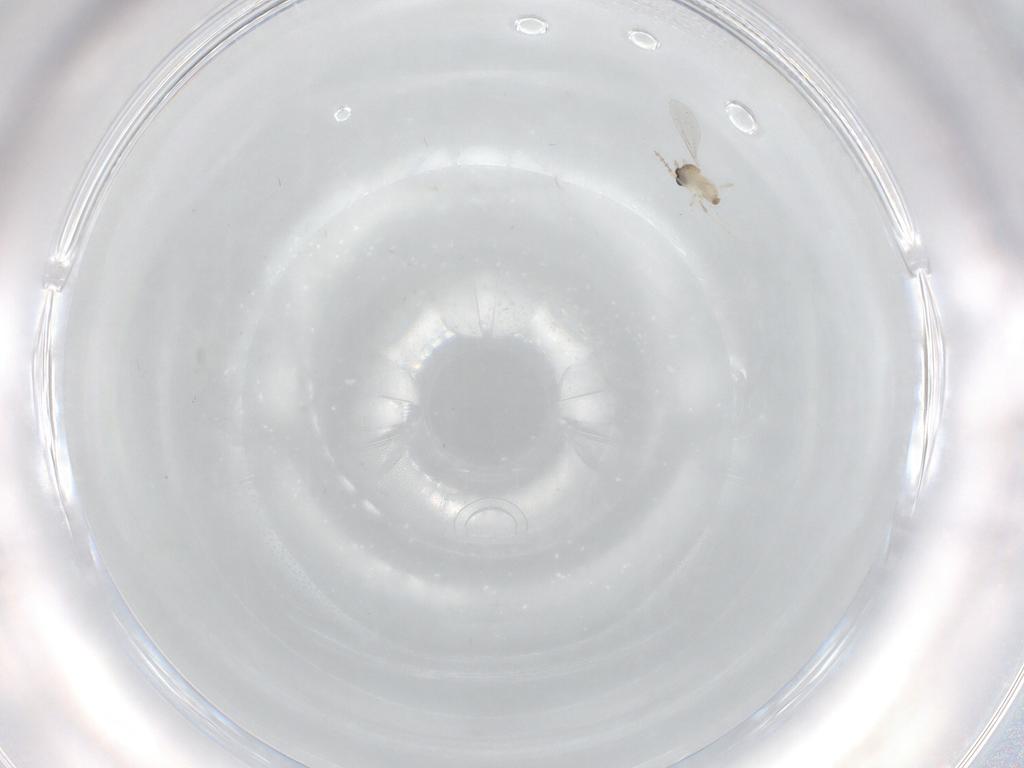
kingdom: Animalia
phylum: Arthropoda
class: Insecta
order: Diptera
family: Cecidomyiidae
